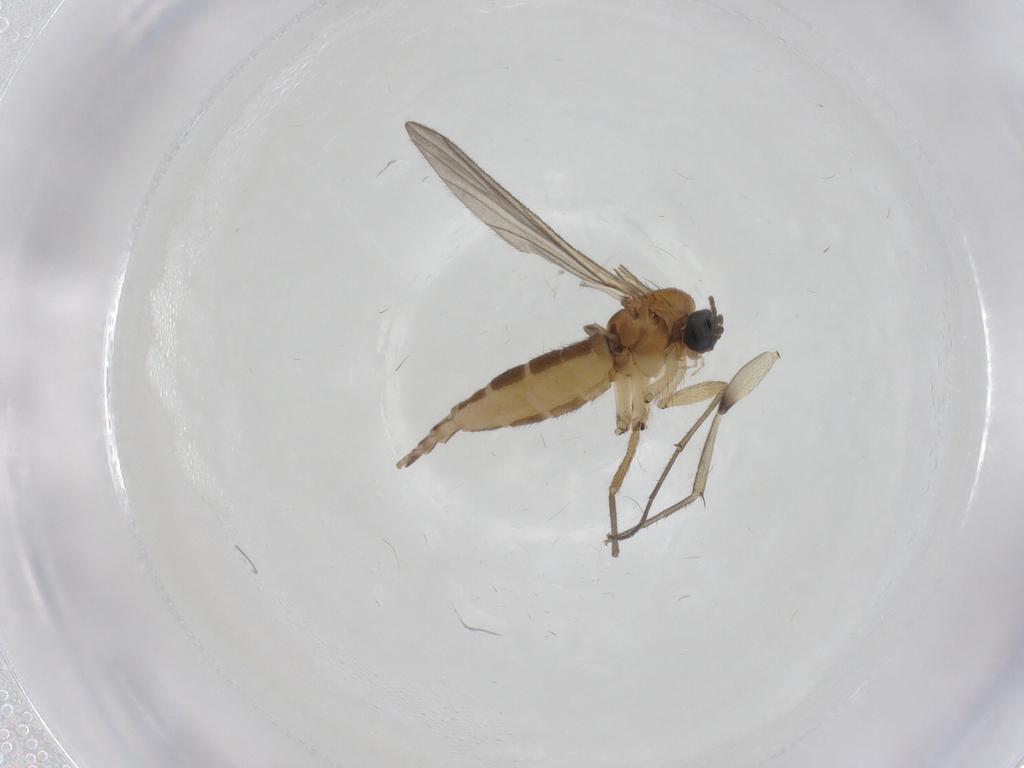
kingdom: Animalia
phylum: Arthropoda
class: Insecta
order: Diptera
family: Phoridae
